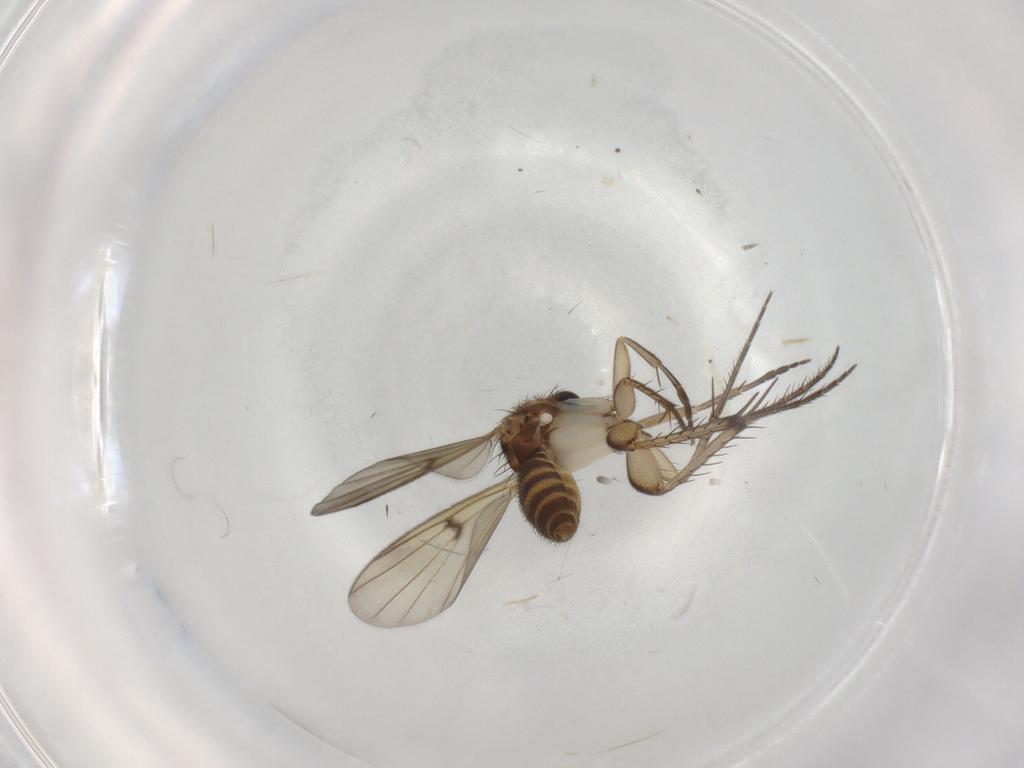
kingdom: Animalia
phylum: Arthropoda
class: Insecta
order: Diptera
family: Mycetophilidae
